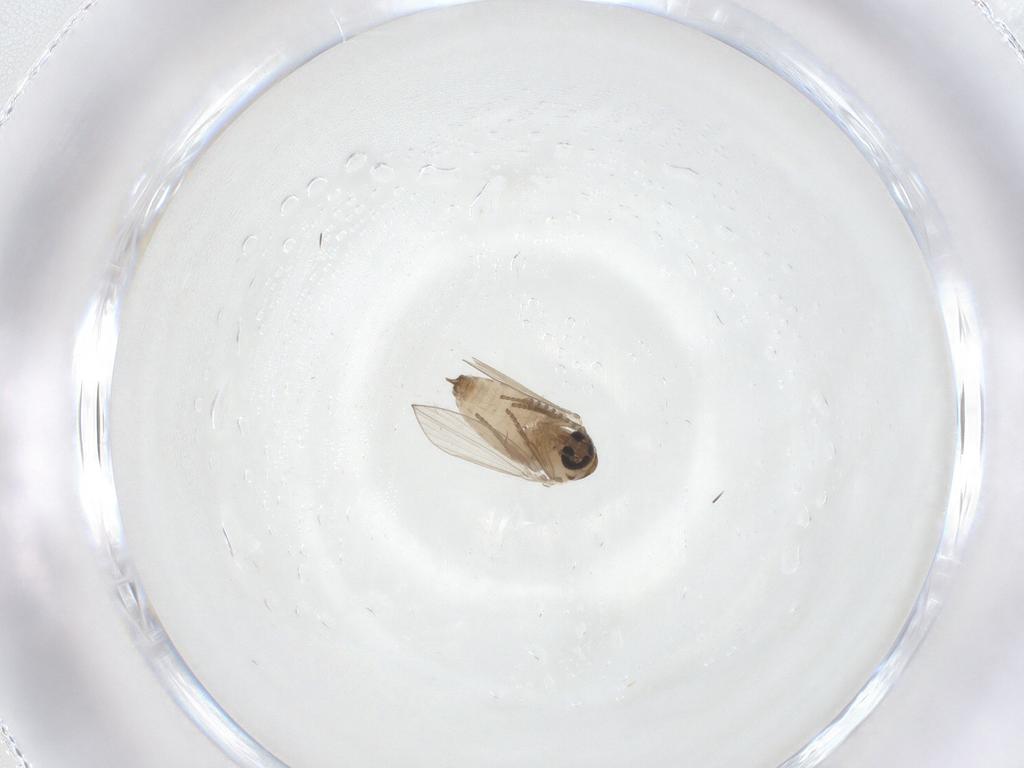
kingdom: Animalia
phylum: Arthropoda
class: Insecta
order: Diptera
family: Psychodidae
